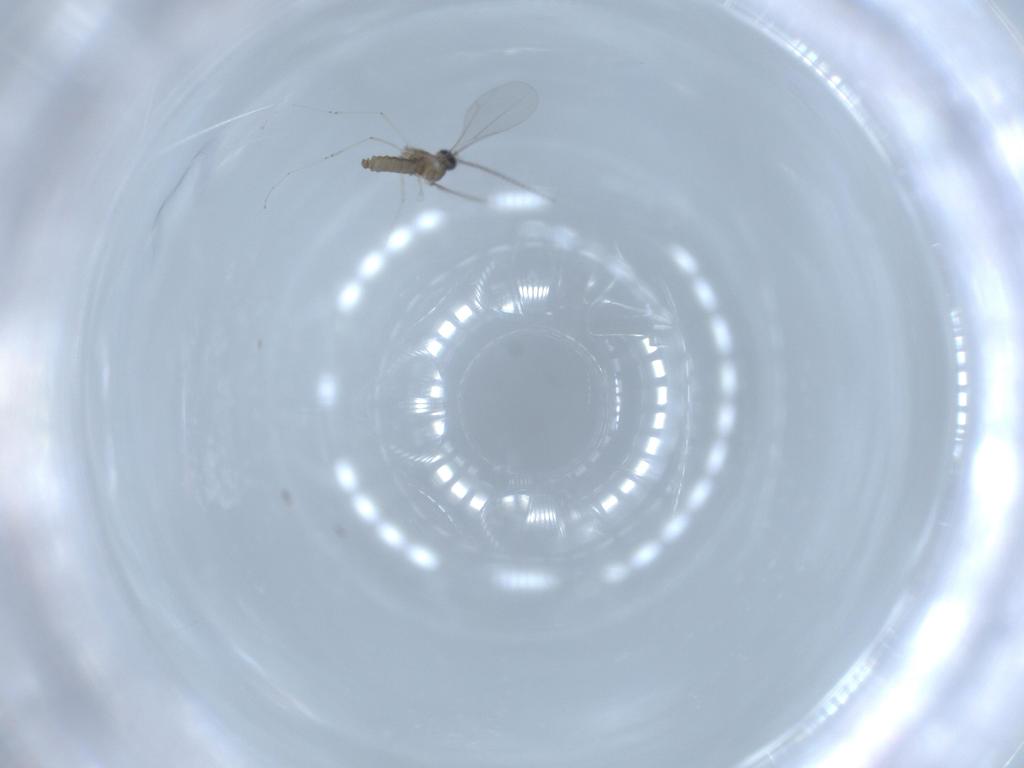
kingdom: Animalia
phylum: Arthropoda
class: Insecta
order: Diptera
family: Cecidomyiidae
